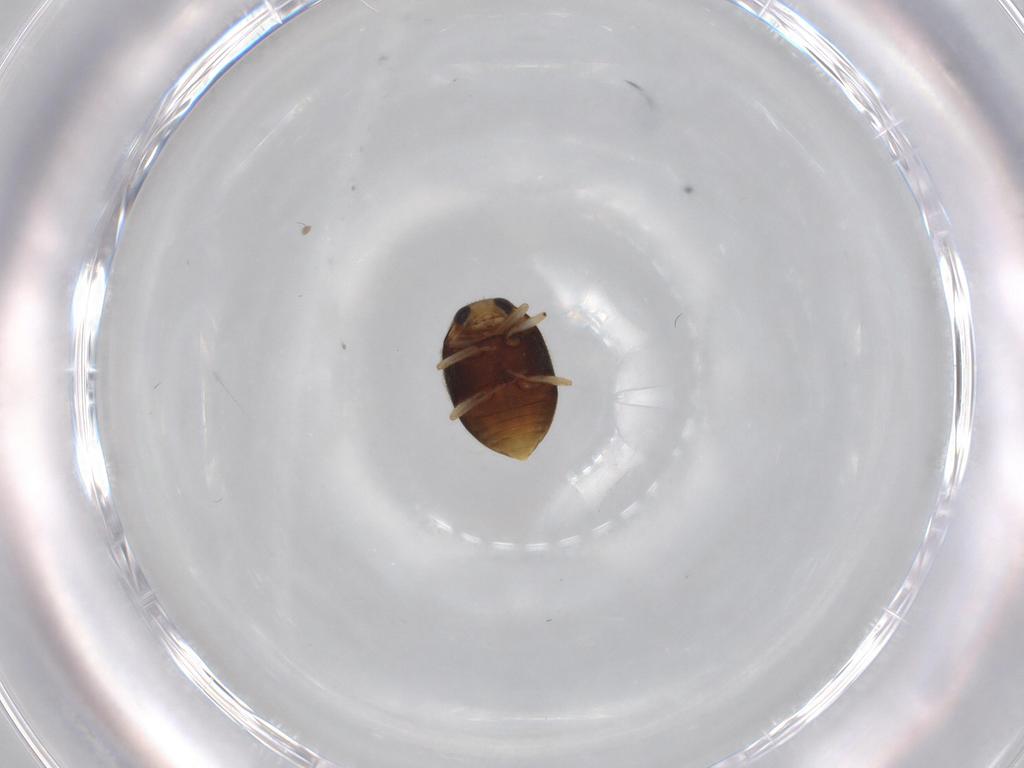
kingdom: Animalia
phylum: Arthropoda
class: Insecta
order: Coleoptera
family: Coccinellidae
